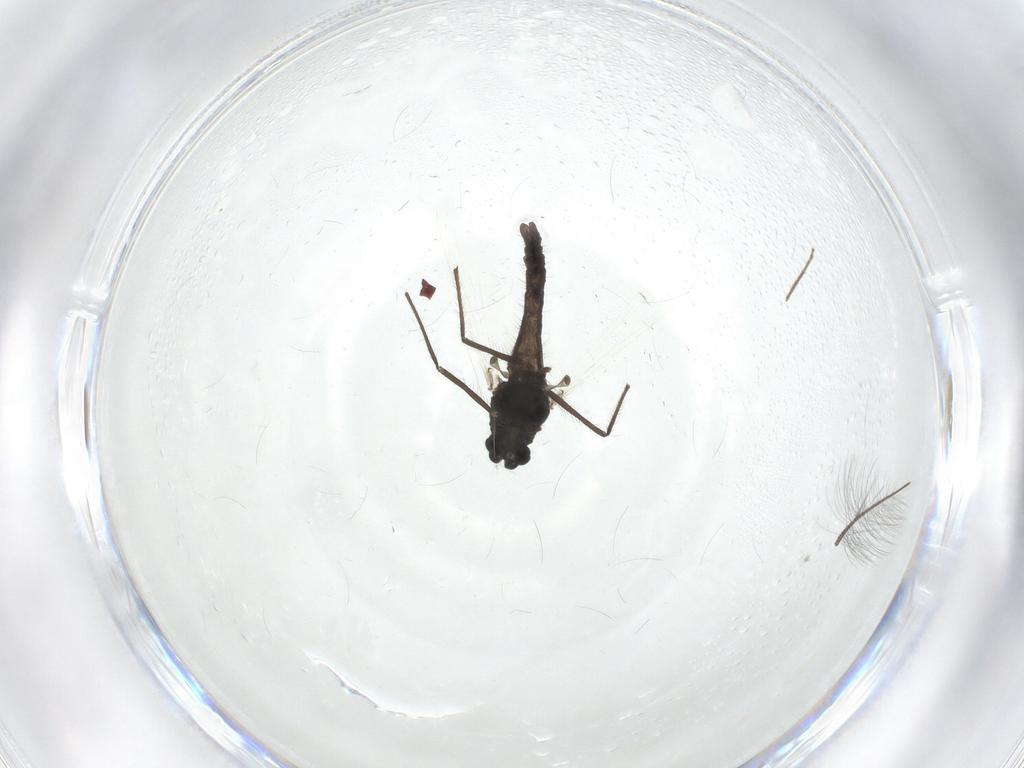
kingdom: Animalia
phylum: Arthropoda
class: Insecta
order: Diptera
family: Chironomidae
